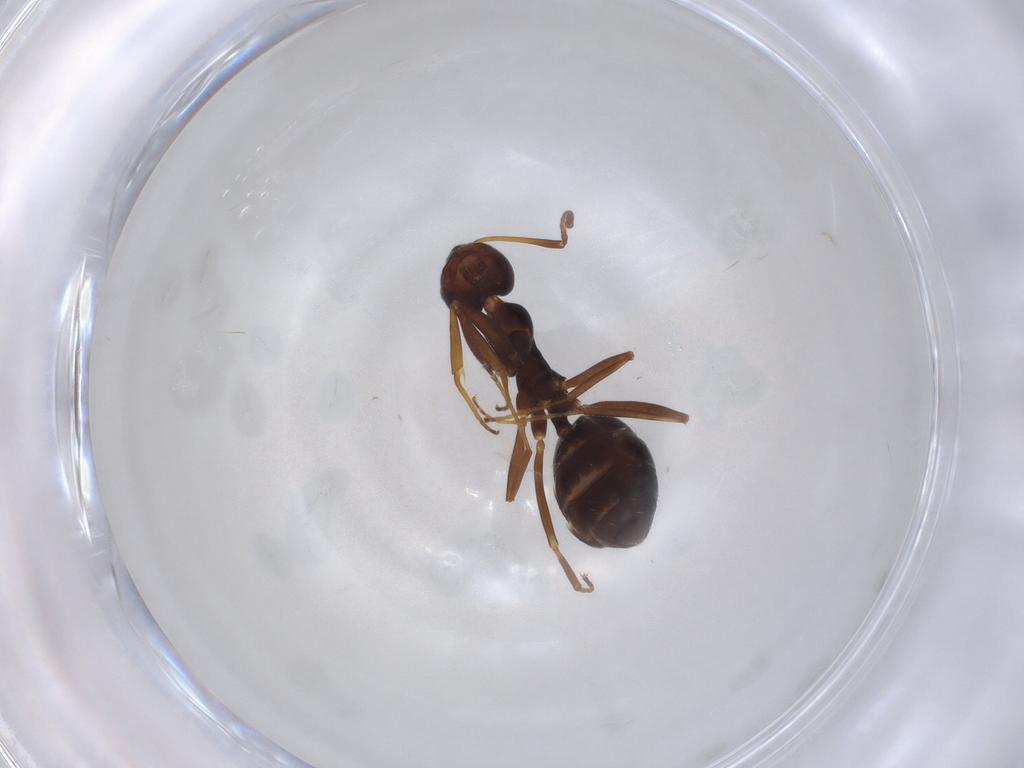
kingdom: Animalia
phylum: Arthropoda
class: Insecta
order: Hymenoptera
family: Formicidae
